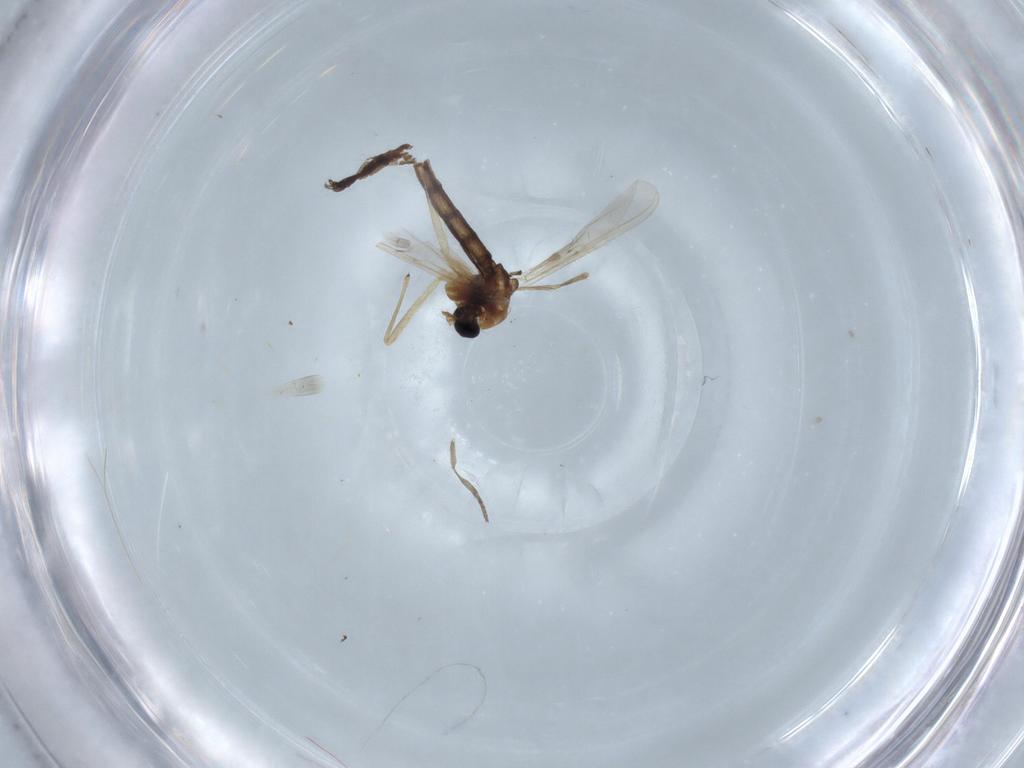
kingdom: Animalia
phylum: Arthropoda
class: Insecta
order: Diptera
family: Chironomidae
